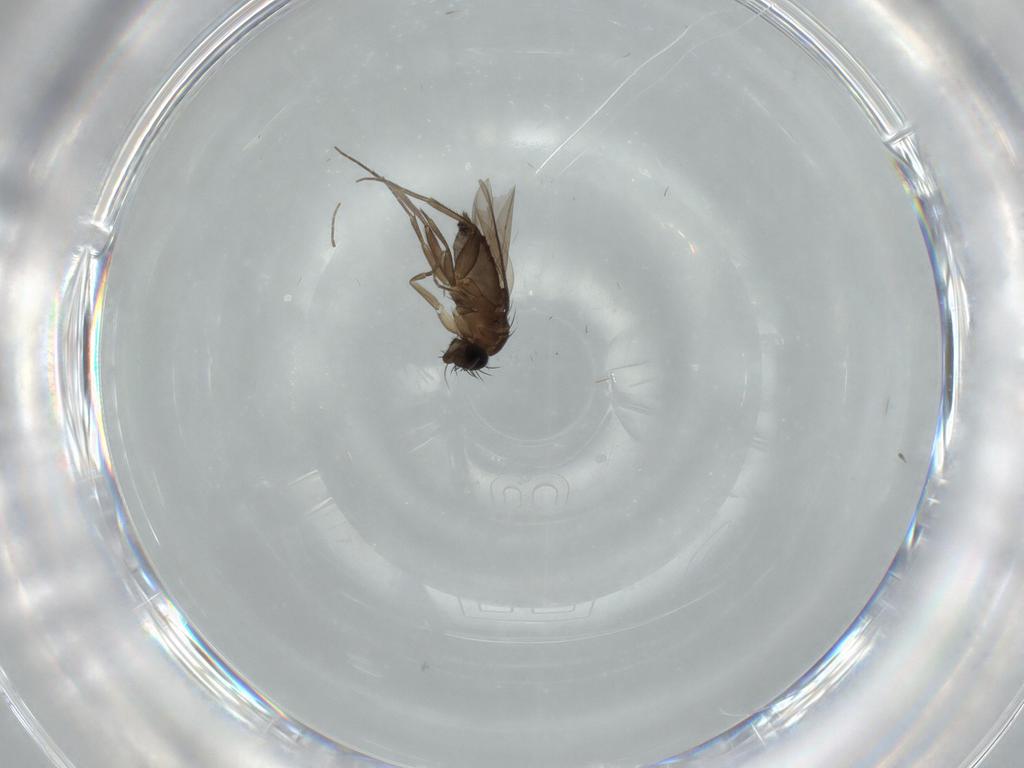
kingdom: Animalia
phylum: Arthropoda
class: Insecta
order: Diptera
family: Phoridae
